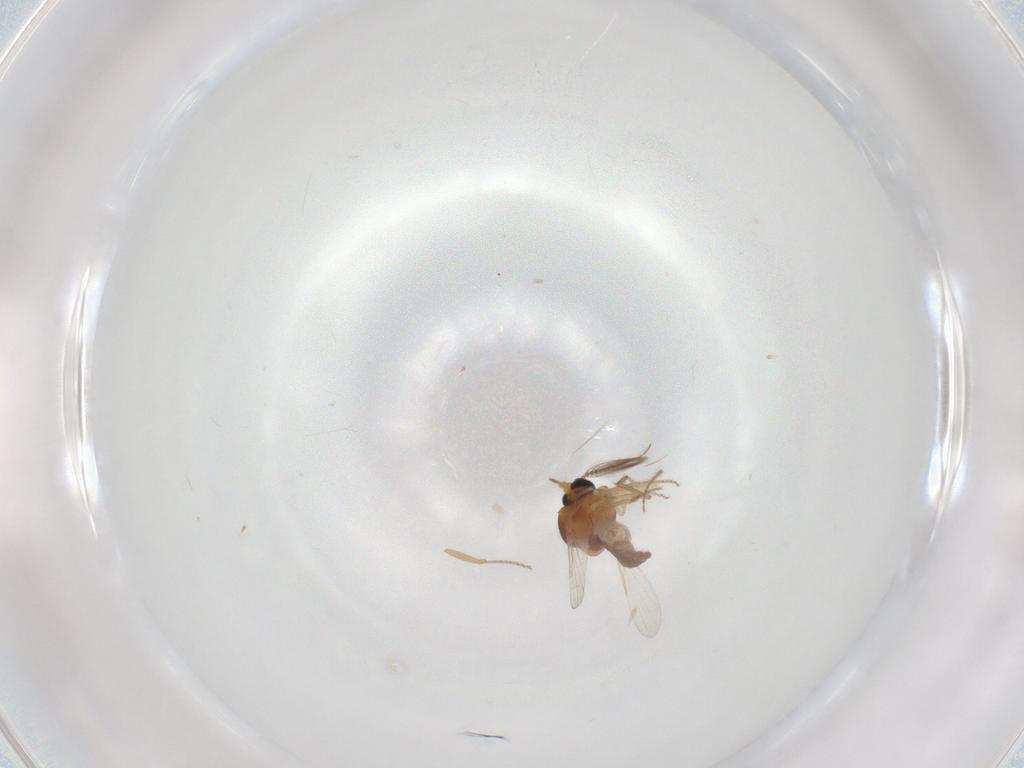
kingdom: Animalia
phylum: Arthropoda
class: Insecta
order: Diptera
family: Ceratopogonidae
